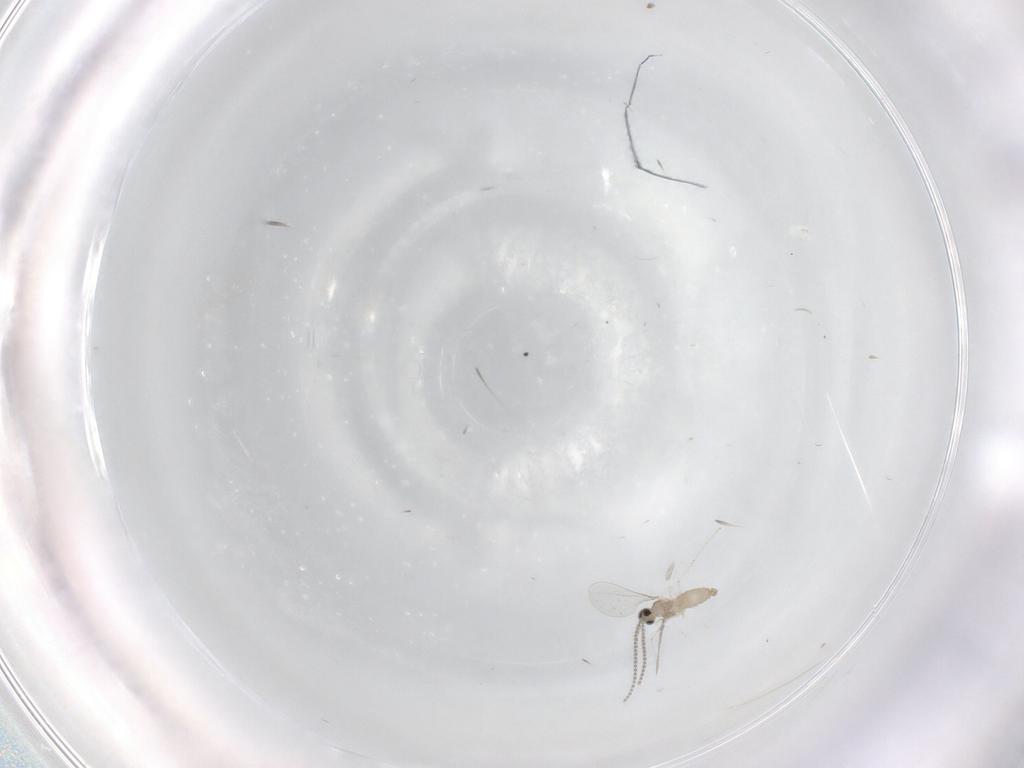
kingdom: Animalia
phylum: Arthropoda
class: Insecta
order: Diptera
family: Cecidomyiidae
